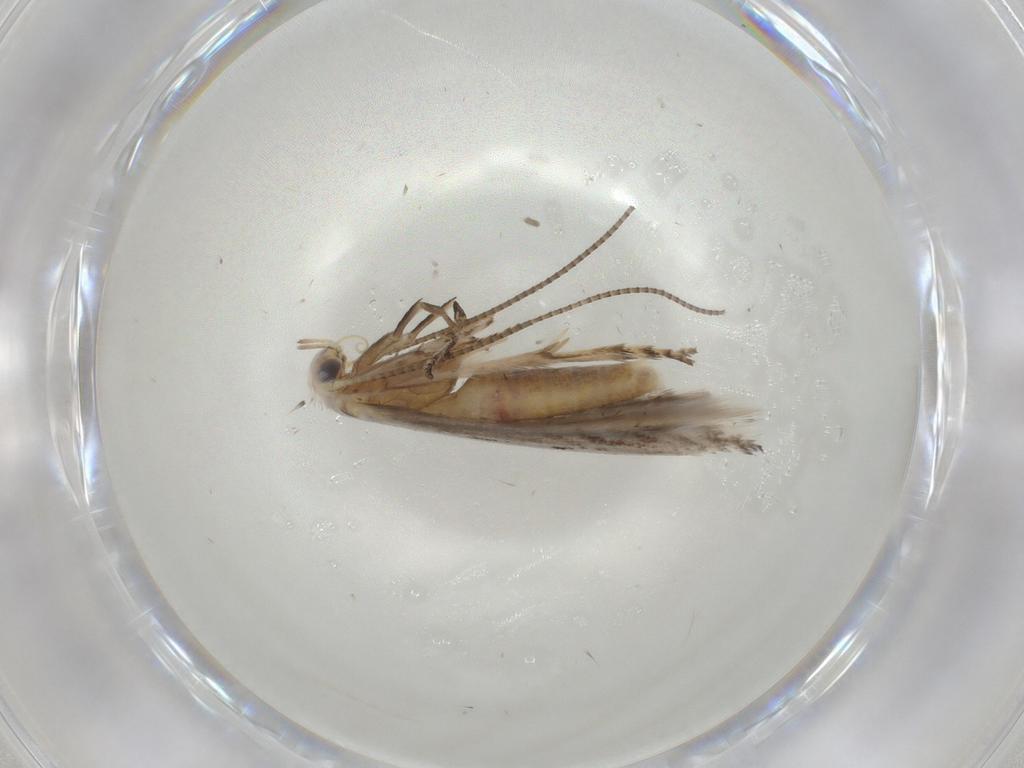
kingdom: Animalia
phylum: Arthropoda
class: Insecta
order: Lepidoptera
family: Lyonetiidae
